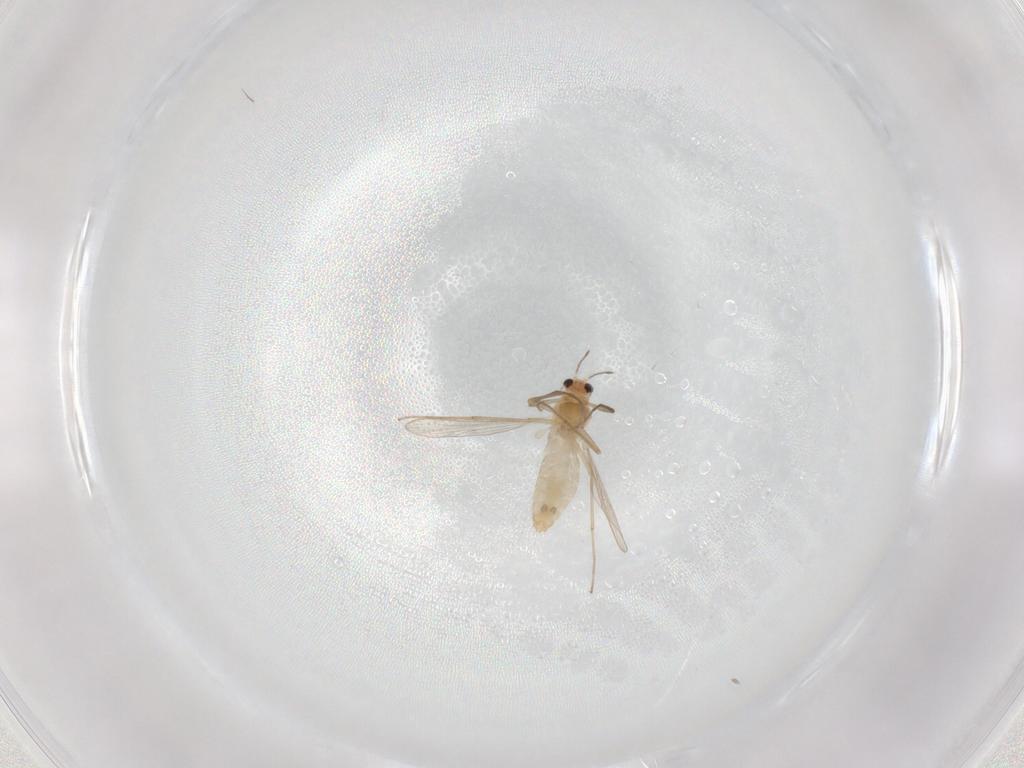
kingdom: Animalia
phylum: Arthropoda
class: Insecta
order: Diptera
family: Chironomidae
